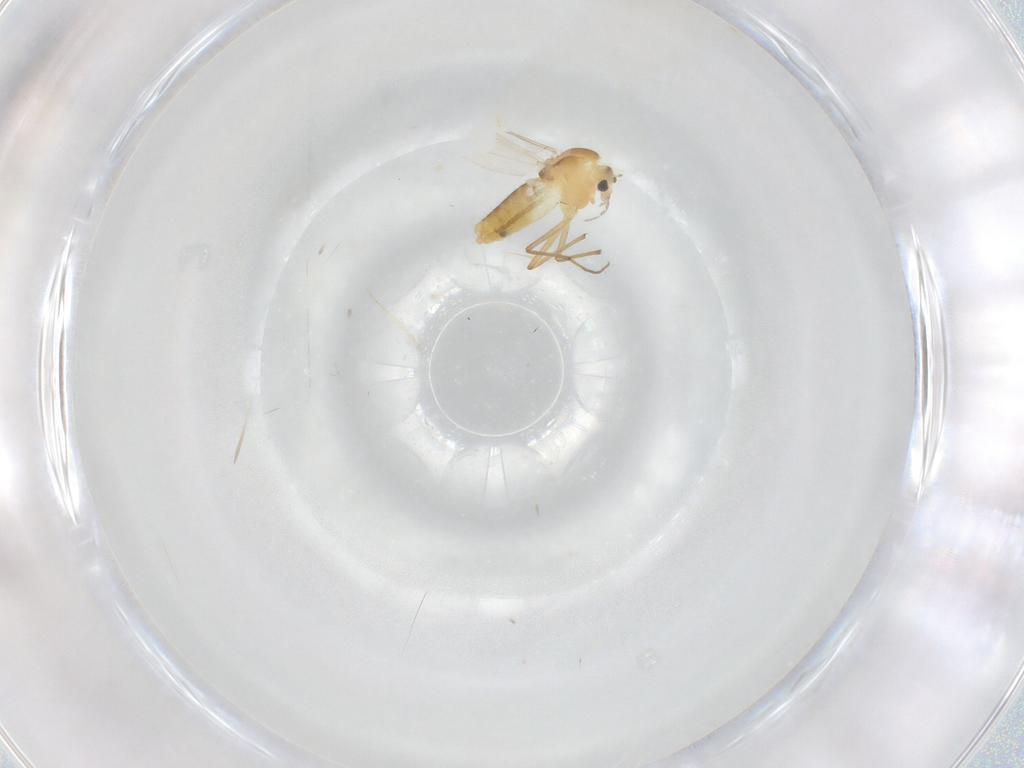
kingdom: Animalia
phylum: Arthropoda
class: Insecta
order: Diptera
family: Chironomidae
